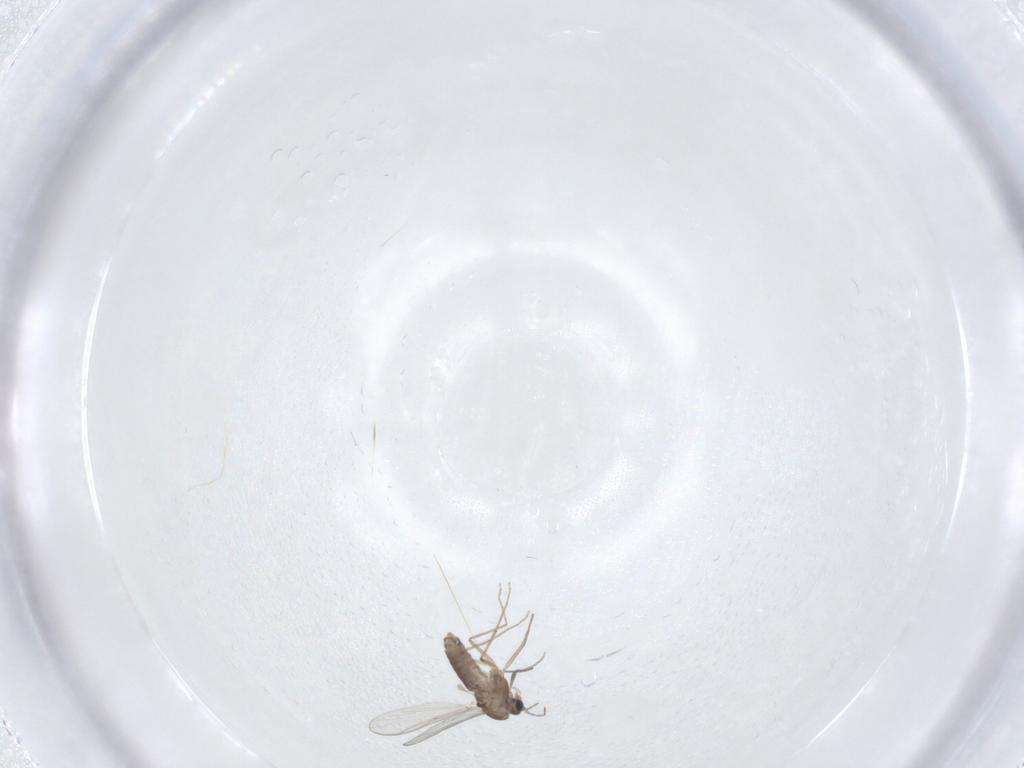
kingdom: Animalia
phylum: Arthropoda
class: Insecta
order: Diptera
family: Hybotidae
